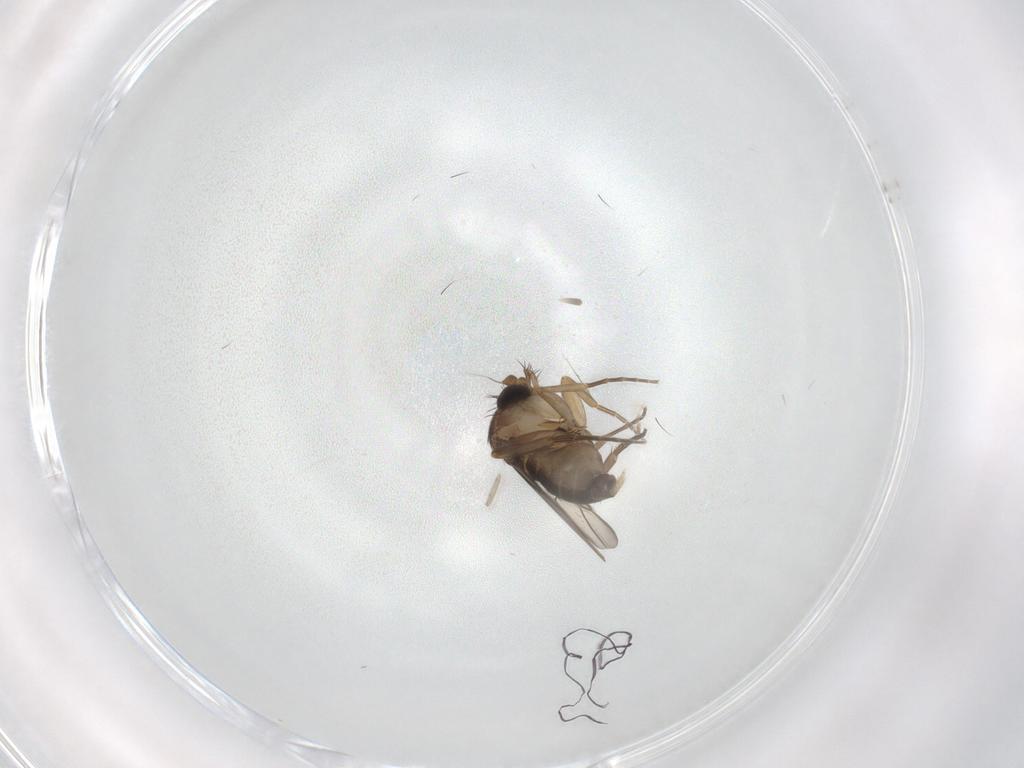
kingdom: Animalia
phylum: Arthropoda
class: Insecta
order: Diptera
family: Phoridae
